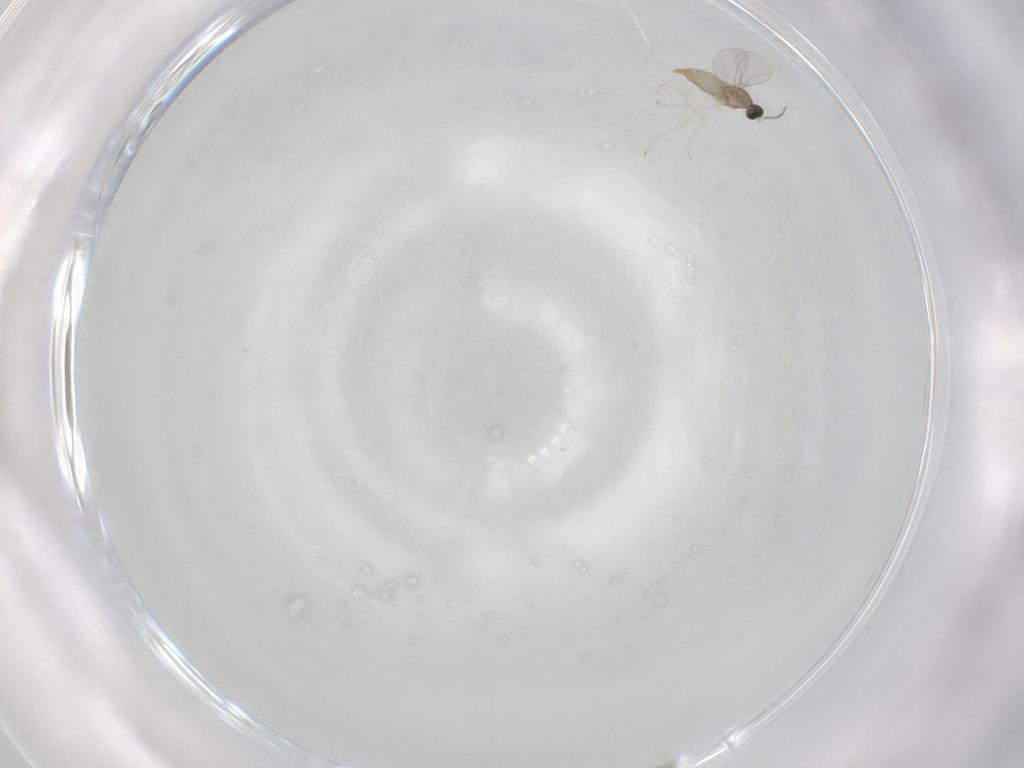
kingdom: Animalia
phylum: Arthropoda
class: Insecta
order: Diptera
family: Cecidomyiidae
